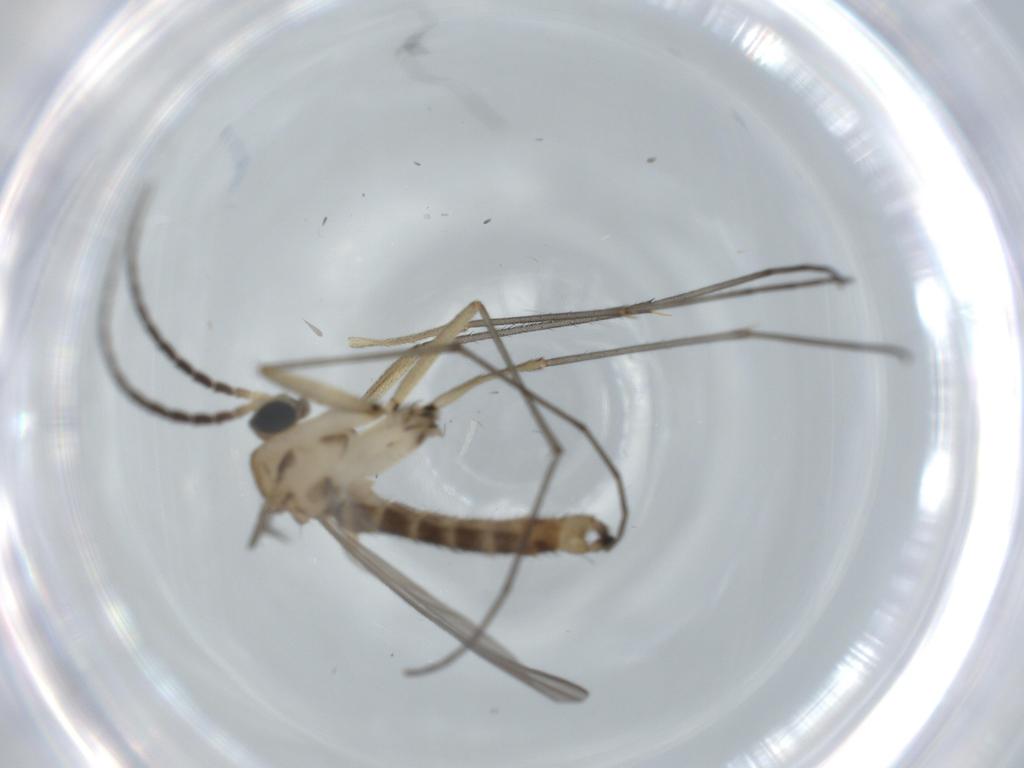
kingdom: Animalia
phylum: Arthropoda
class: Insecta
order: Diptera
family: Sciaridae
